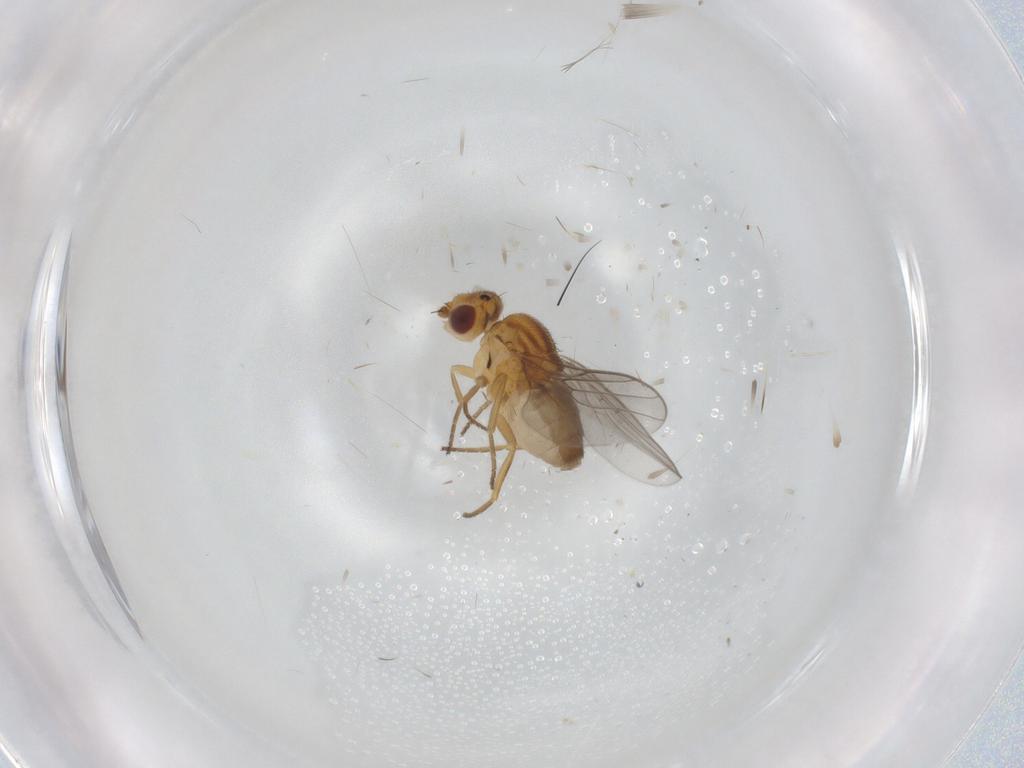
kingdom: Animalia
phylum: Arthropoda
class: Insecta
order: Diptera
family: Chloropidae
